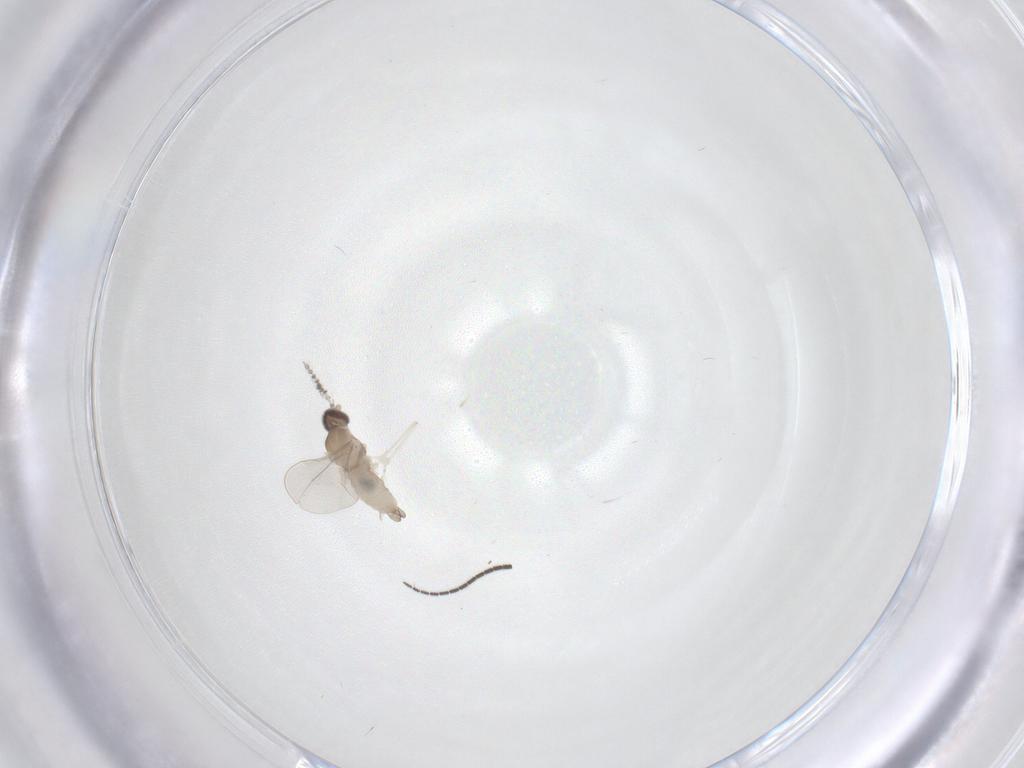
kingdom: Animalia
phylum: Arthropoda
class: Insecta
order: Diptera
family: Cecidomyiidae
